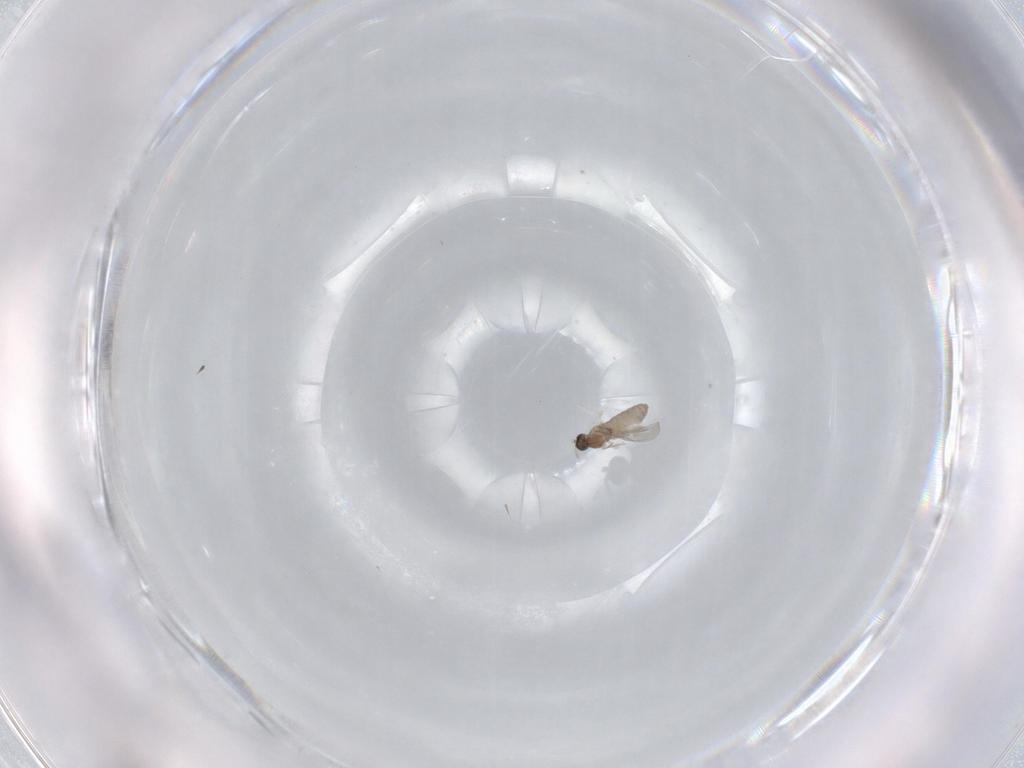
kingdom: Animalia
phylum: Arthropoda
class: Insecta
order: Diptera
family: Cecidomyiidae
